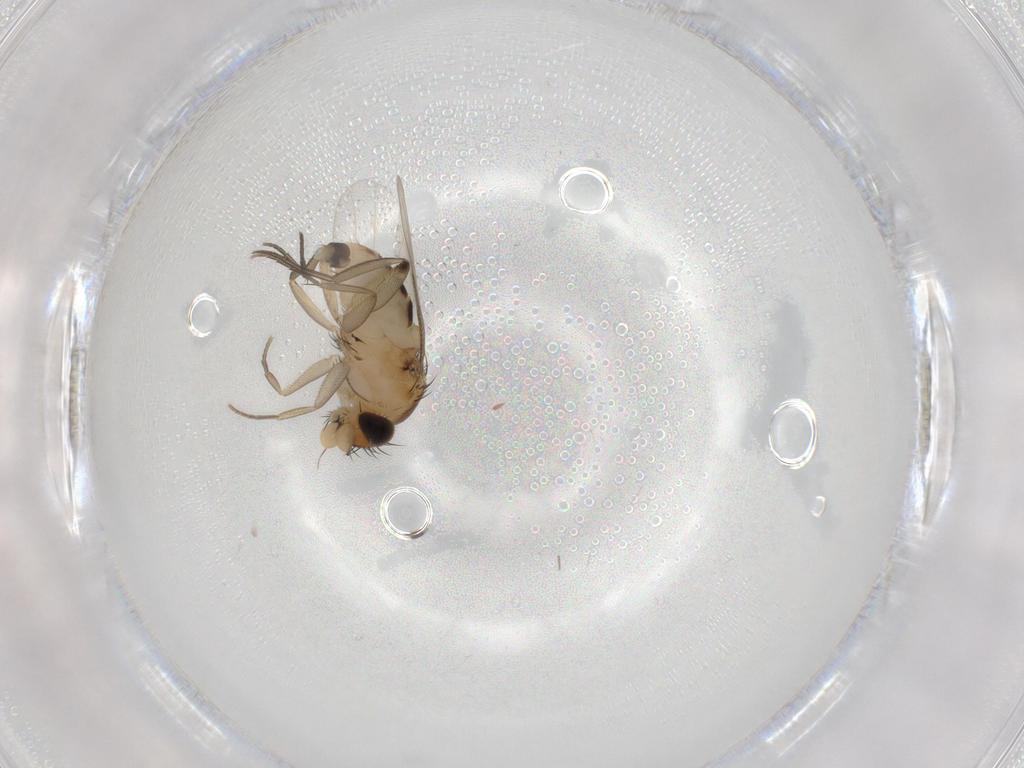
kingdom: Animalia
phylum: Arthropoda
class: Insecta
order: Diptera
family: Phoridae
